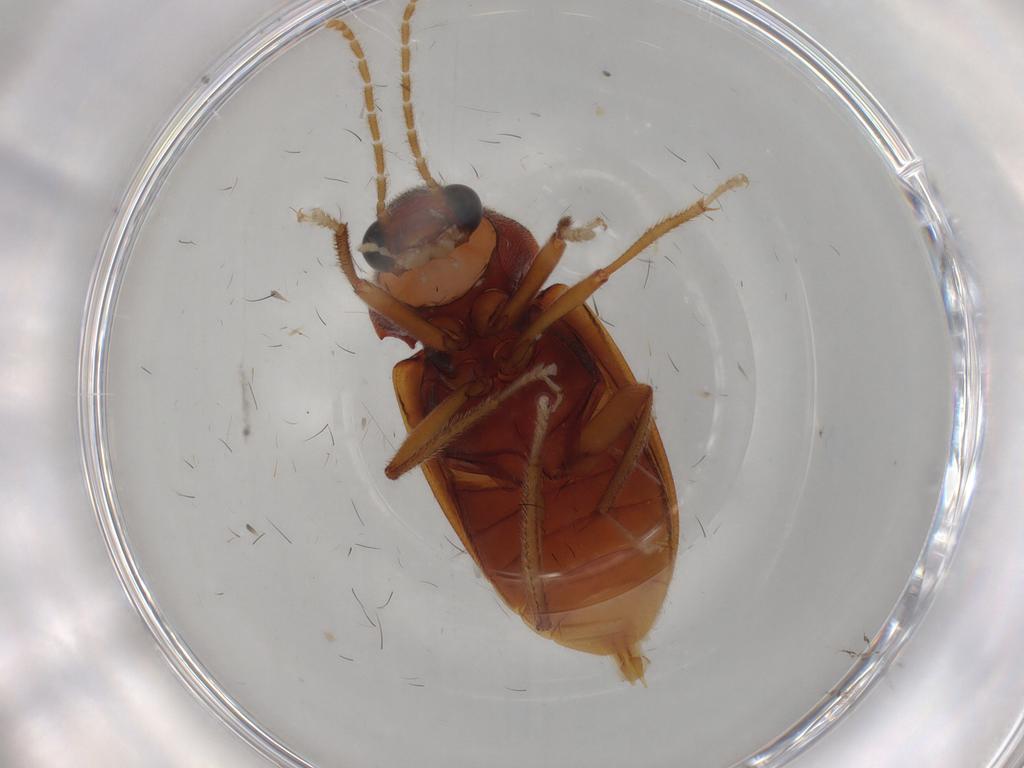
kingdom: Animalia
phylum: Arthropoda
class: Insecta
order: Coleoptera
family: Ptilodactylidae
